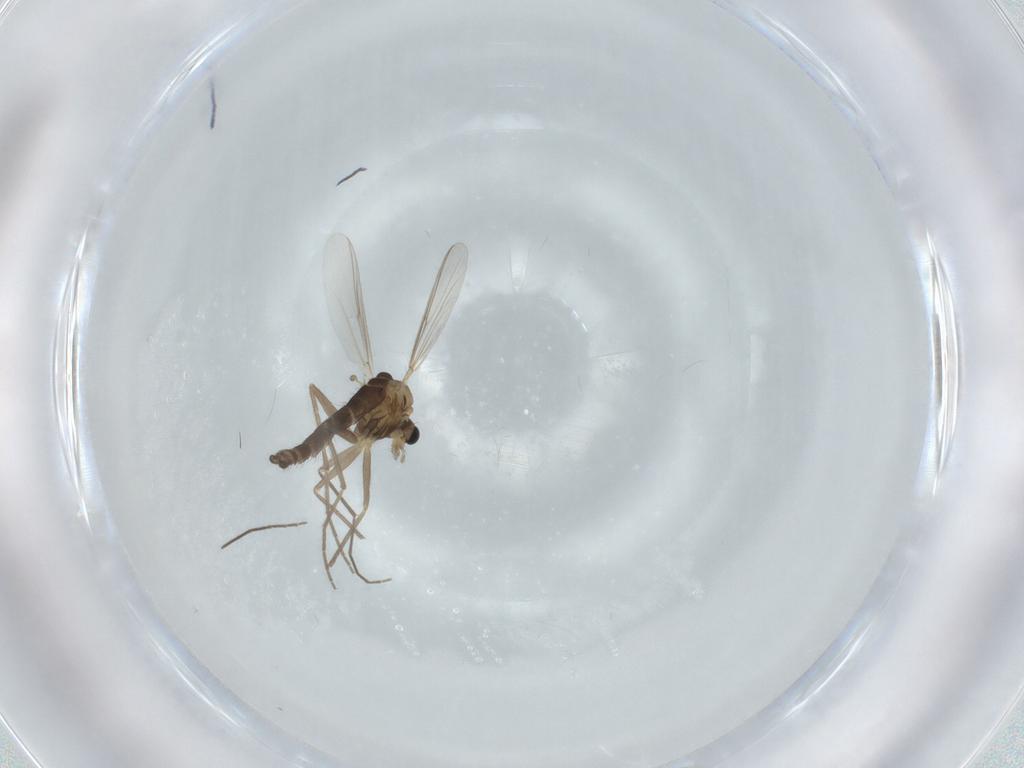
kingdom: Animalia
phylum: Arthropoda
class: Insecta
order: Diptera
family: Chironomidae
